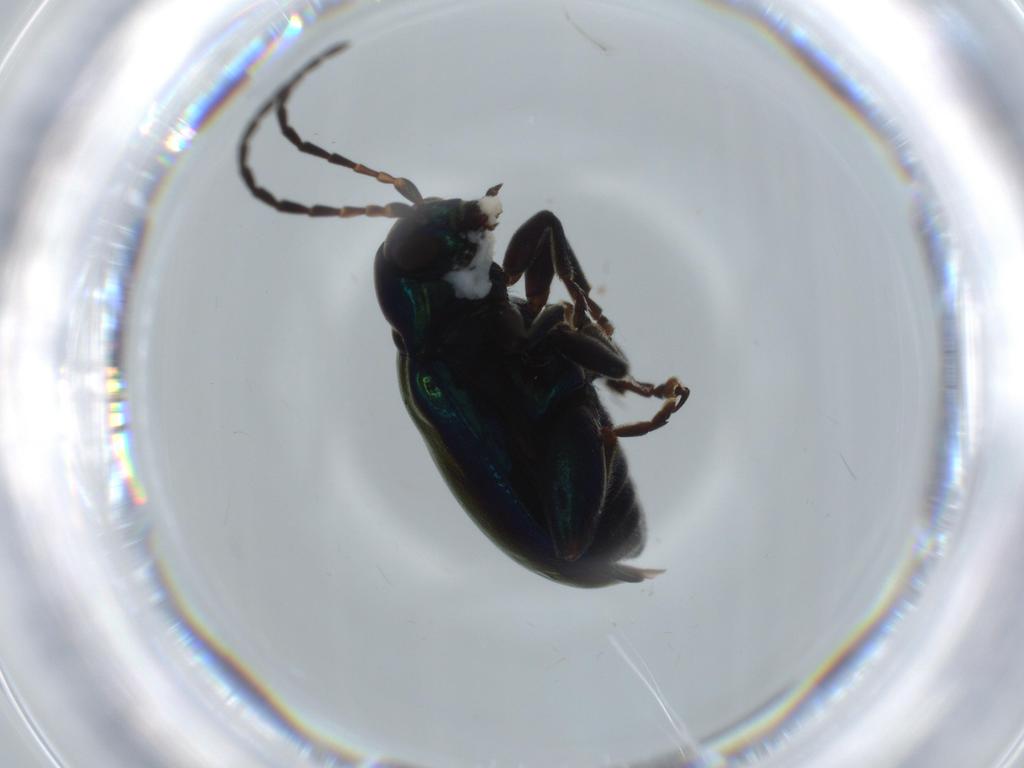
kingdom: Animalia
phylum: Arthropoda
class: Insecta
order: Coleoptera
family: Chrysomelidae
